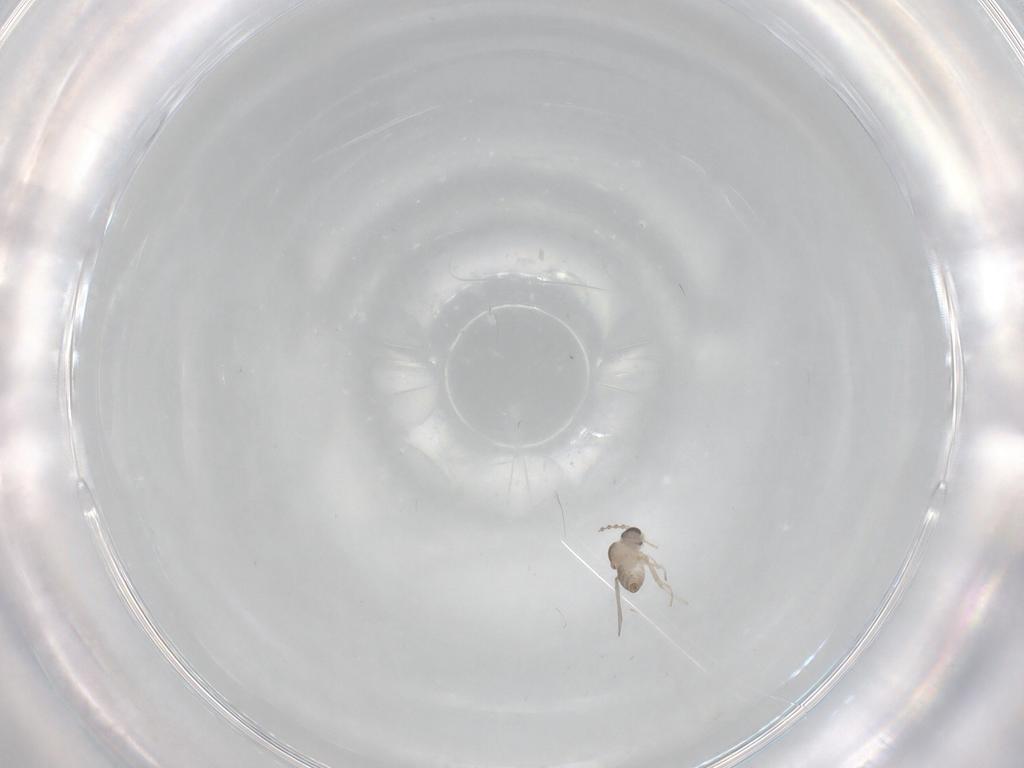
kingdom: Animalia
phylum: Arthropoda
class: Insecta
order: Diptera
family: Cecidomyiidae
